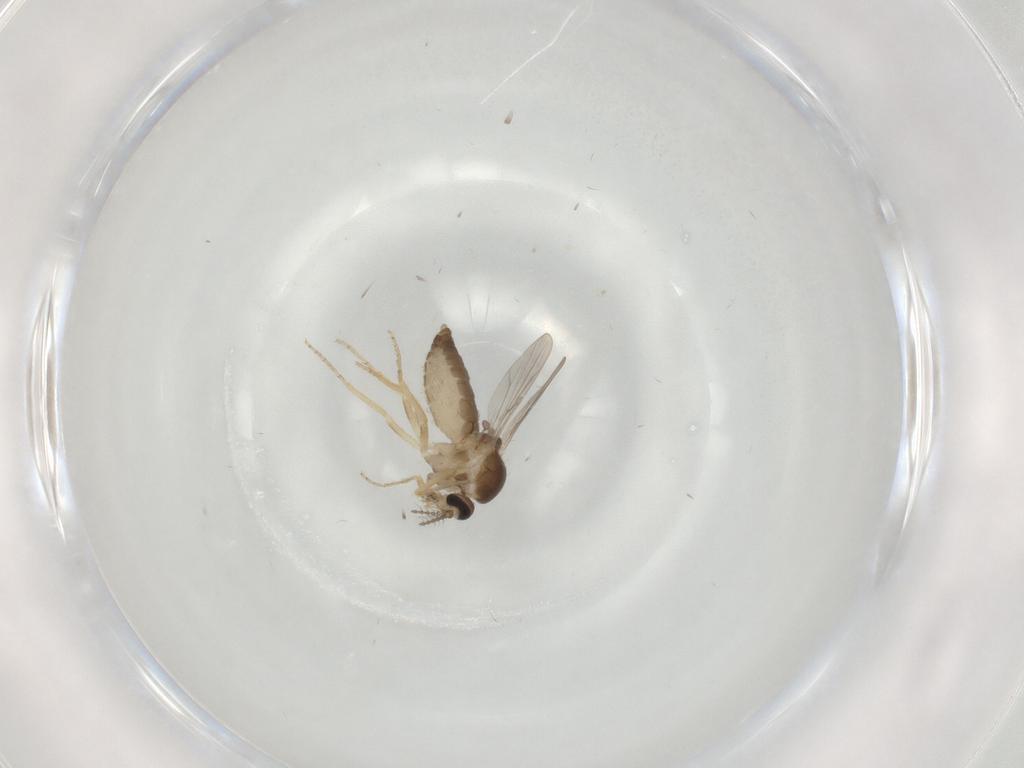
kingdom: Animalia
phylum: Arthropoda
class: Insecta
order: Diptera
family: Ceratopogonidae
